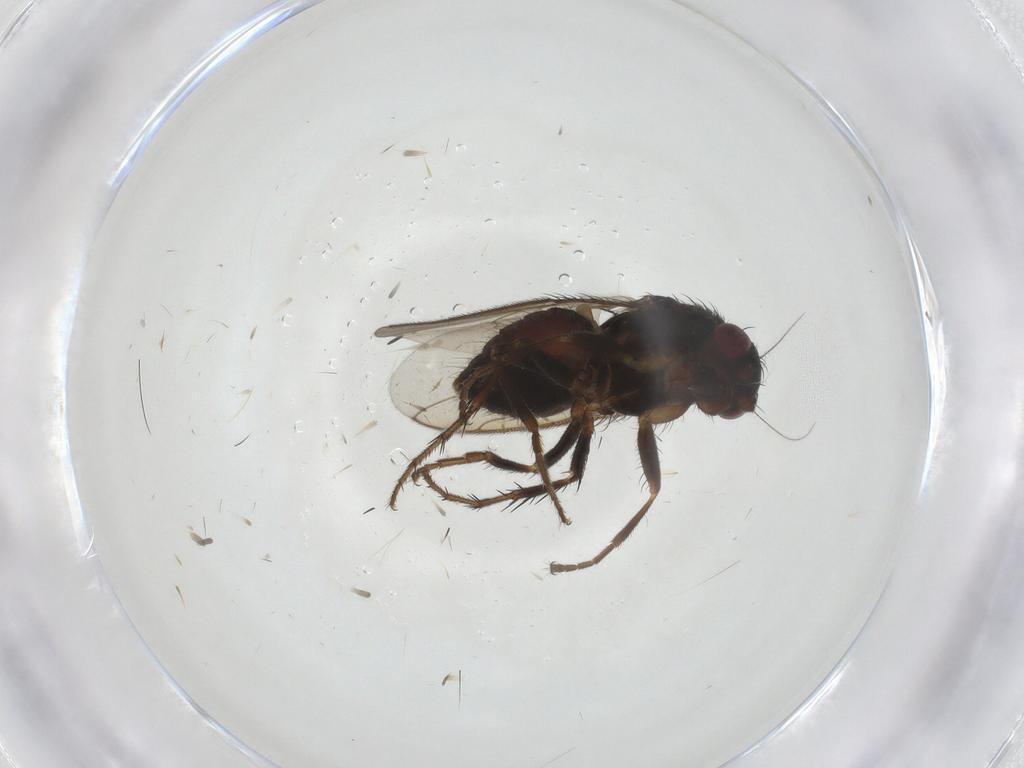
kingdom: Animalia
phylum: Arthropoda
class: Insecta
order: Diptera
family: Sphaeroceridae
